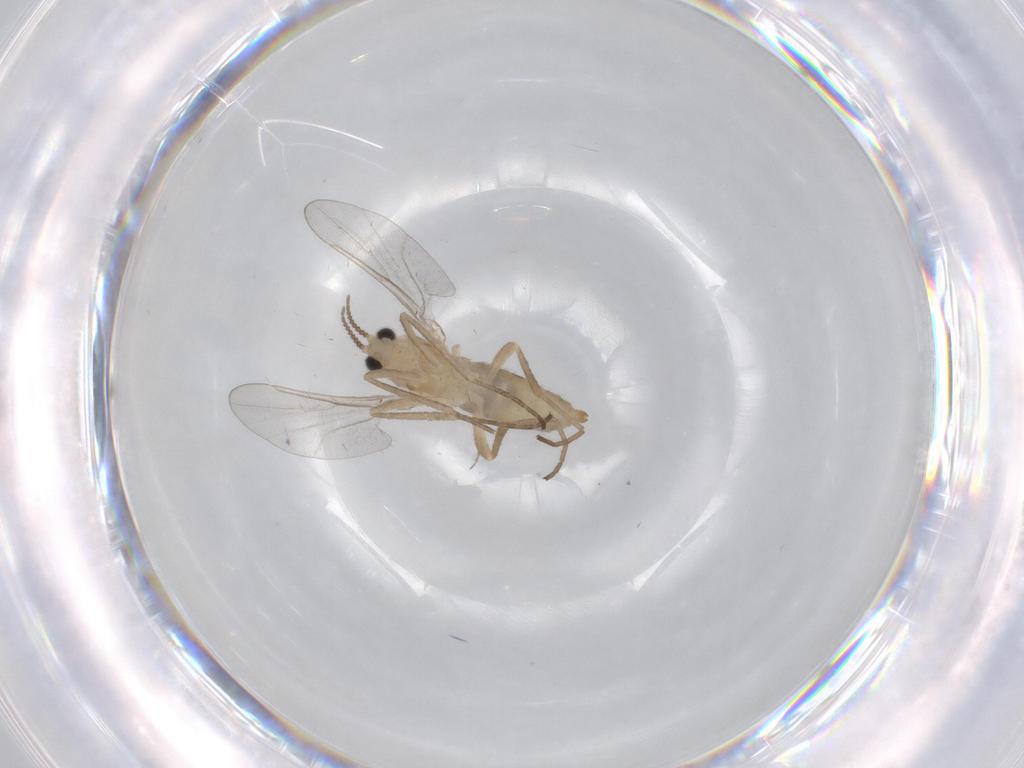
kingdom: Animalia
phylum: Arthropoda
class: Insecta
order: Diptera
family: Cecidomyiidae
